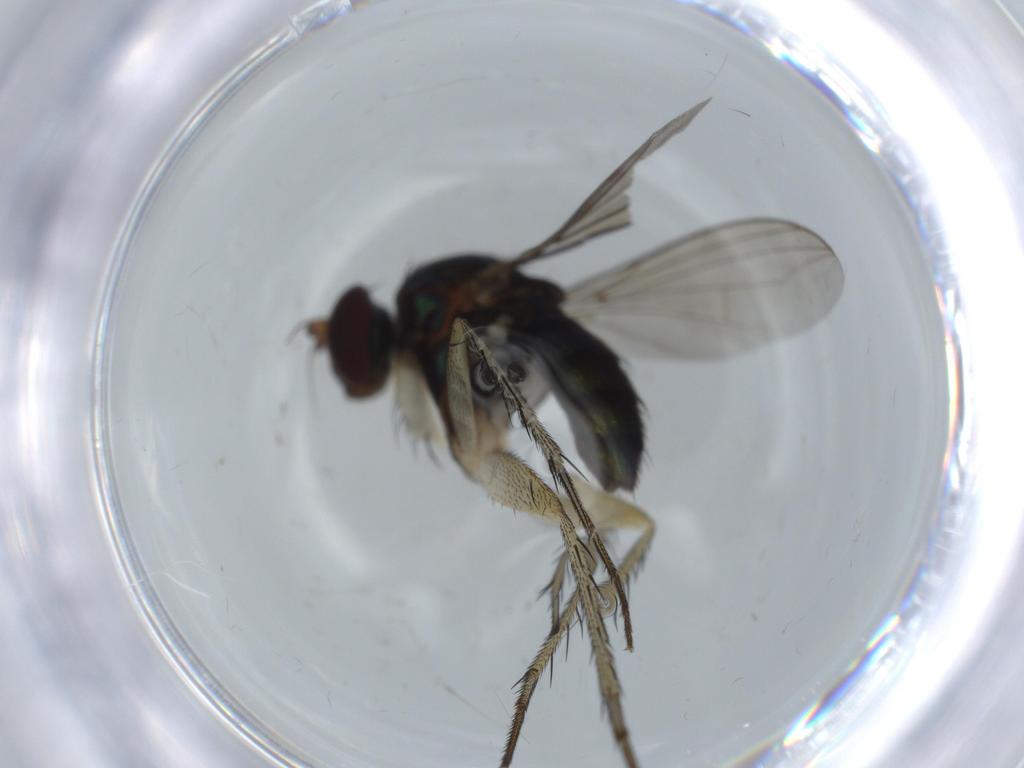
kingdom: Animalia
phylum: Arthropoda
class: Insecta
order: Diptera
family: Dolichopodidae
